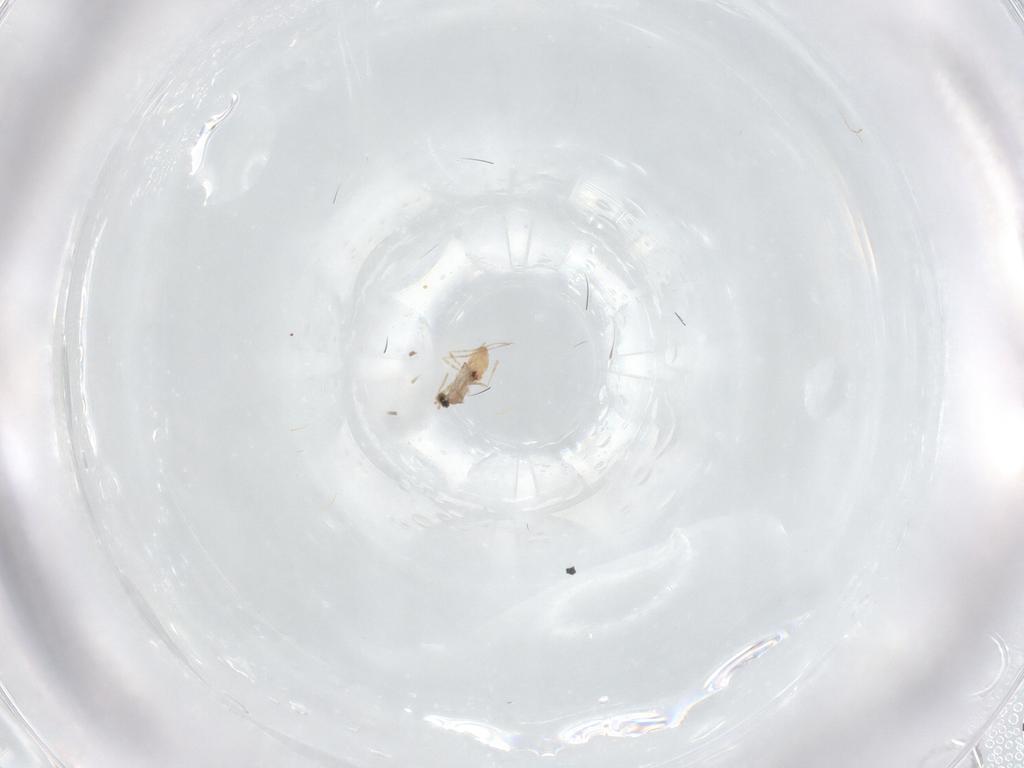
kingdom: Animalia
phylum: Arthropoda
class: Insecta
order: Diptera
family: Cecidomyiidae
